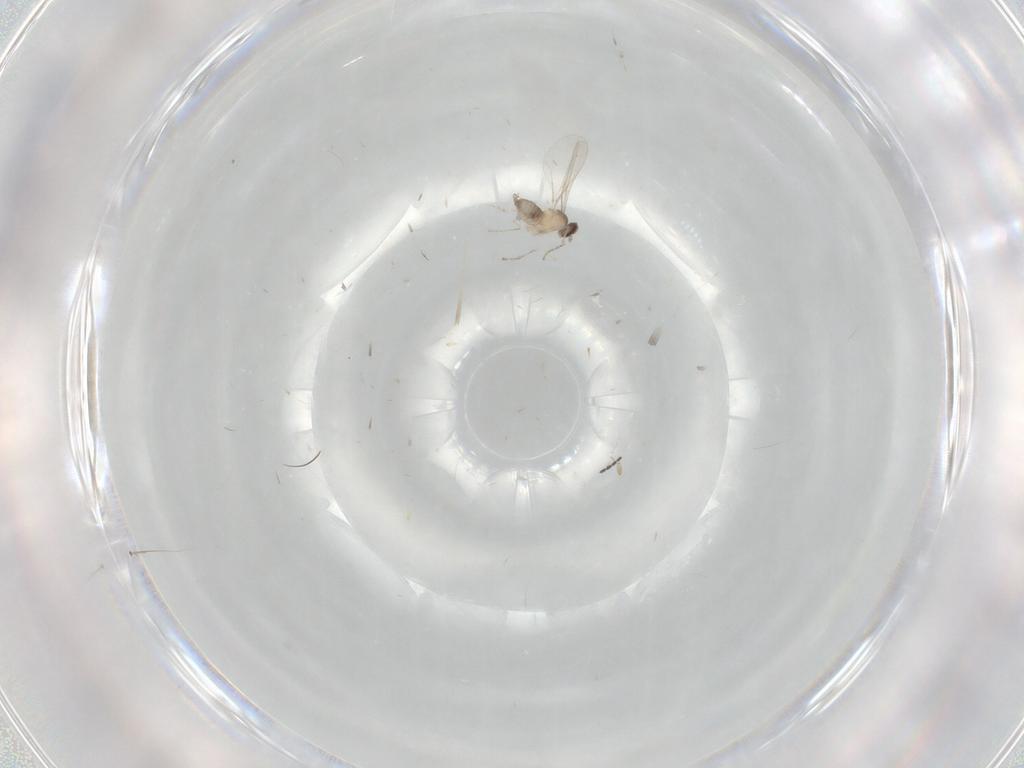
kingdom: Animalia
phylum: Arthropoda
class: Insecta
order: Diptera
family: Cecidomyiidae
